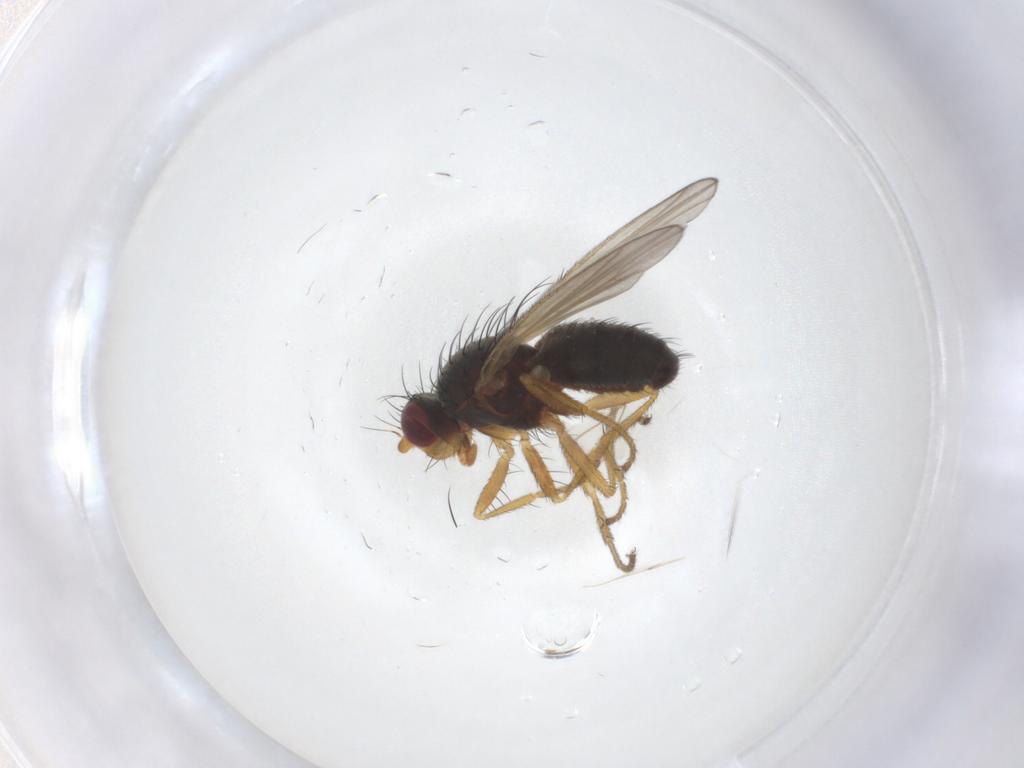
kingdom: Animalia
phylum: Arthropoda
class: Insecta
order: Diptera
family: Heleomyzidae
